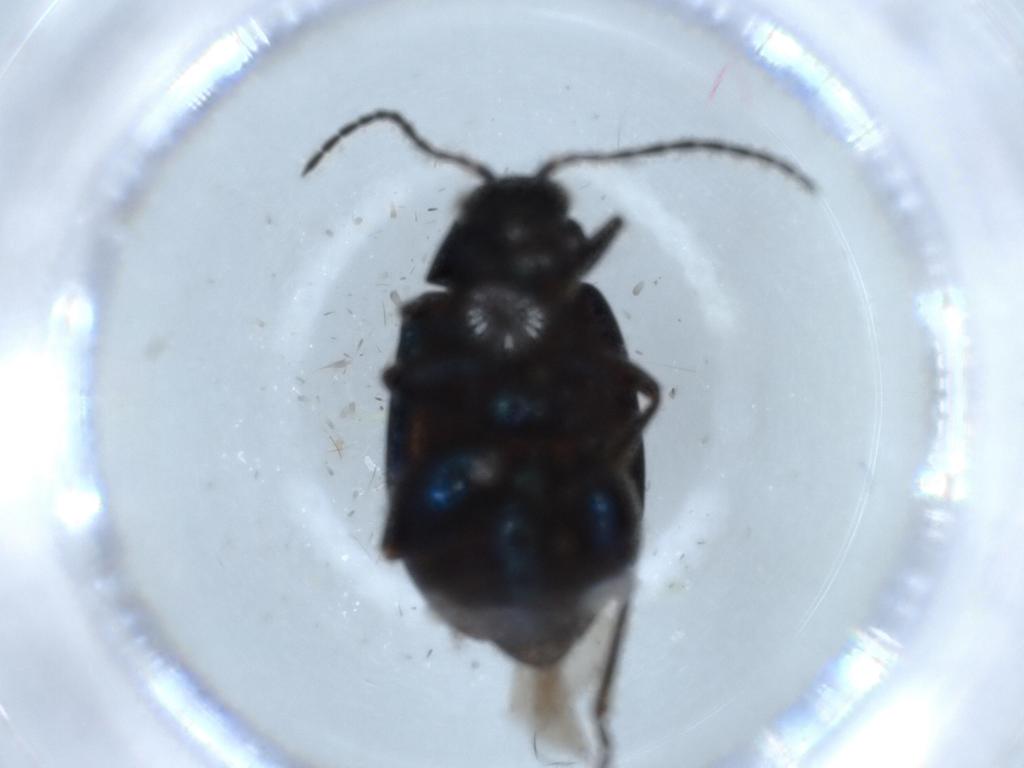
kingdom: Animalia
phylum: Arthropoda
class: Insecta
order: Coleoptera
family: Chrysomelidae
